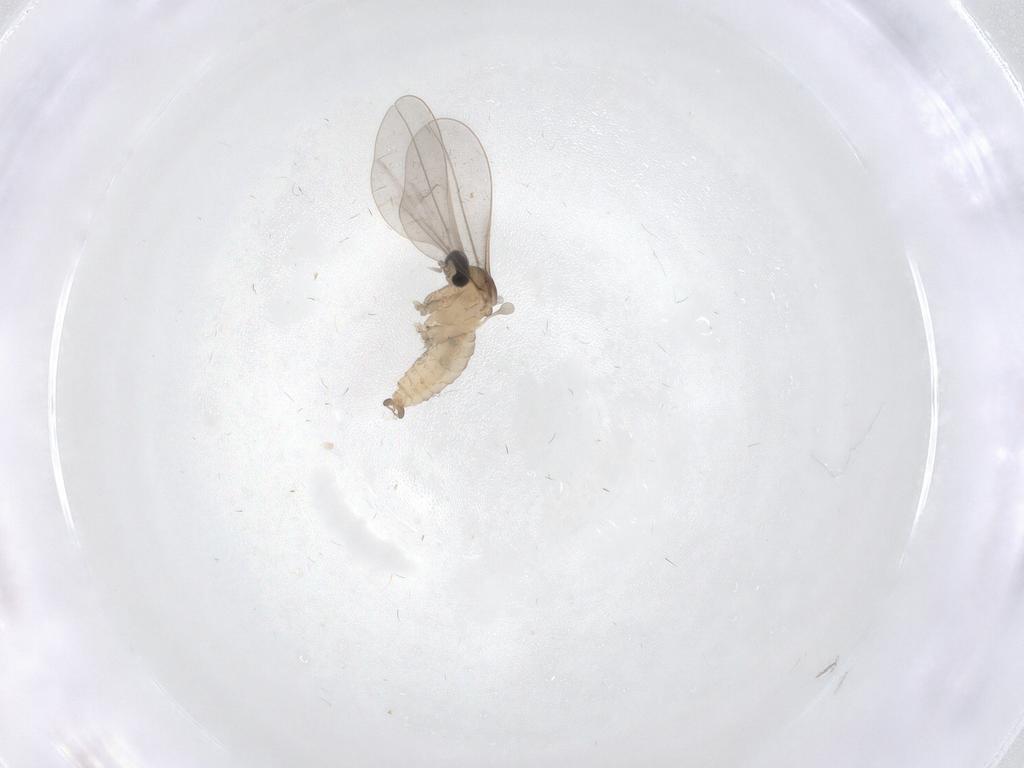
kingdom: Animalia
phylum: Arthropoda
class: Insecta
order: Diptera
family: Cecidomyiidae
